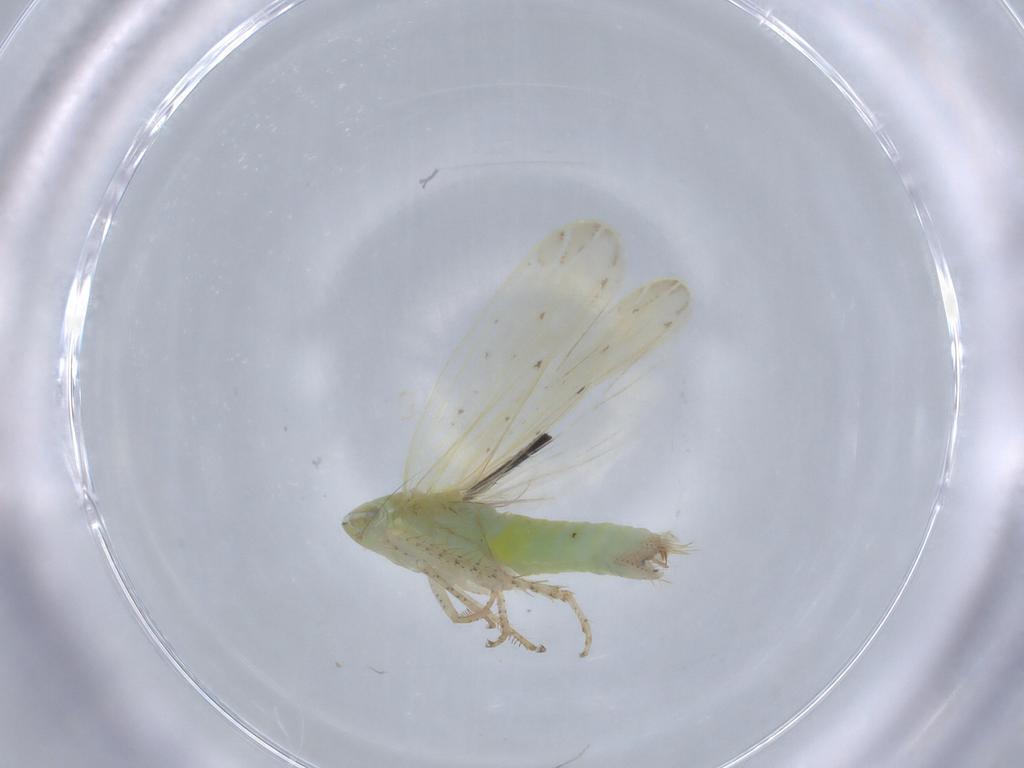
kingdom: Animalia
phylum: Arthropoda
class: Insecta
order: Hemiptera
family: Cicadellidae
